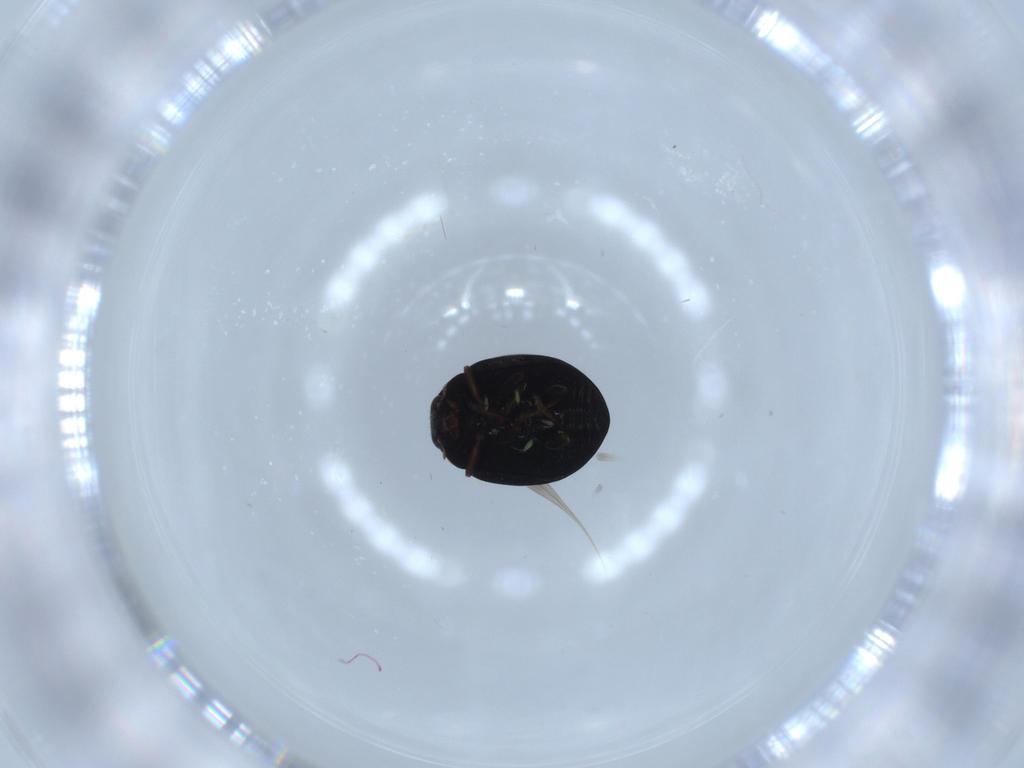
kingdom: Animalia
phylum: Arthropoda
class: Insecta
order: Coleoptera
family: Coccinellidae
